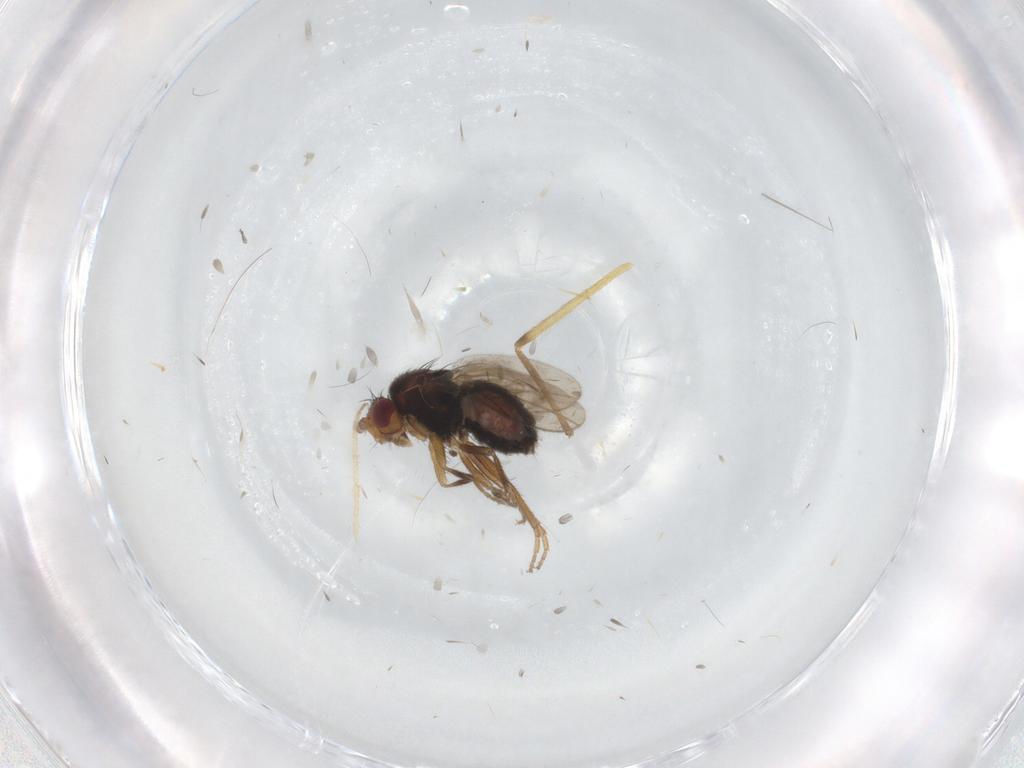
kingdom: Animalia
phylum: Arthropoda
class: Insecta
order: Diptera
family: Sphaeroceridae
